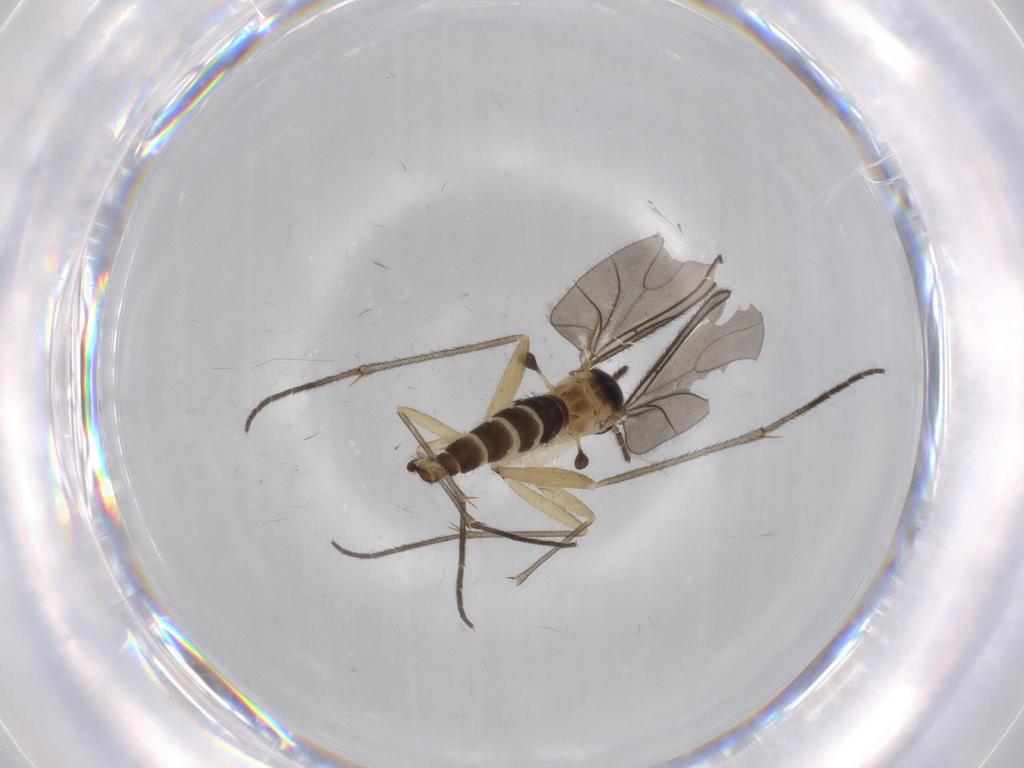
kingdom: Animalia
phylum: Arthropoda
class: Insecta
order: Diptera
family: Sciaridae
